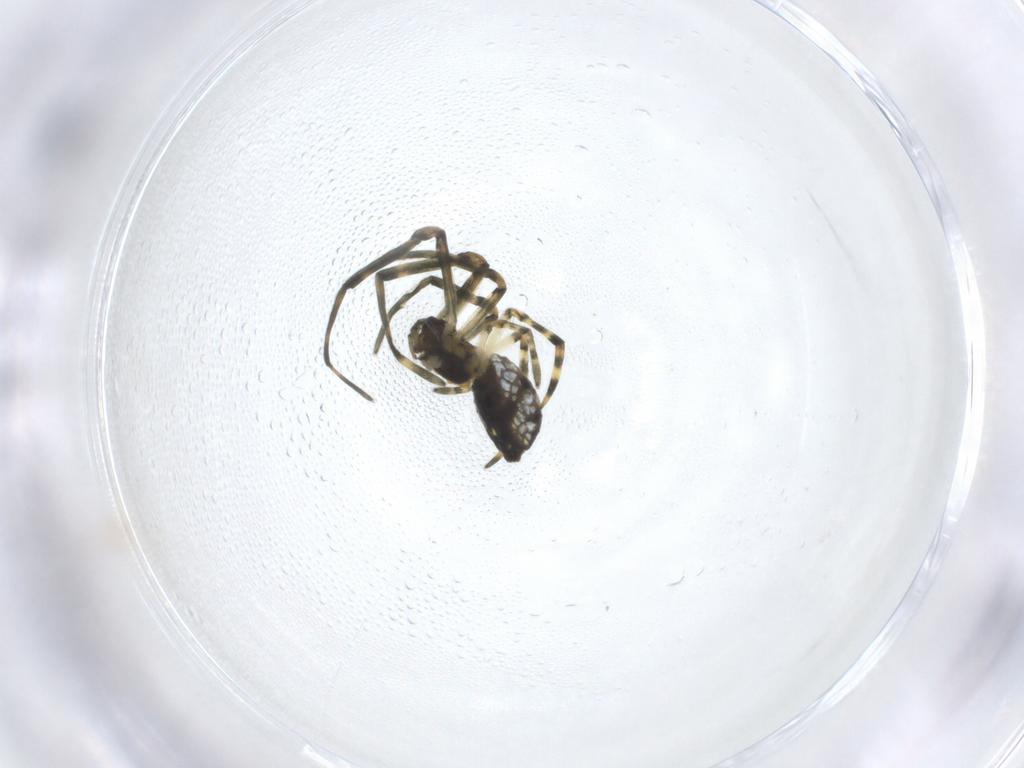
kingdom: Animalia
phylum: Arthropoda
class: Arachnida
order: Araneae
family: Tetragnathidae
